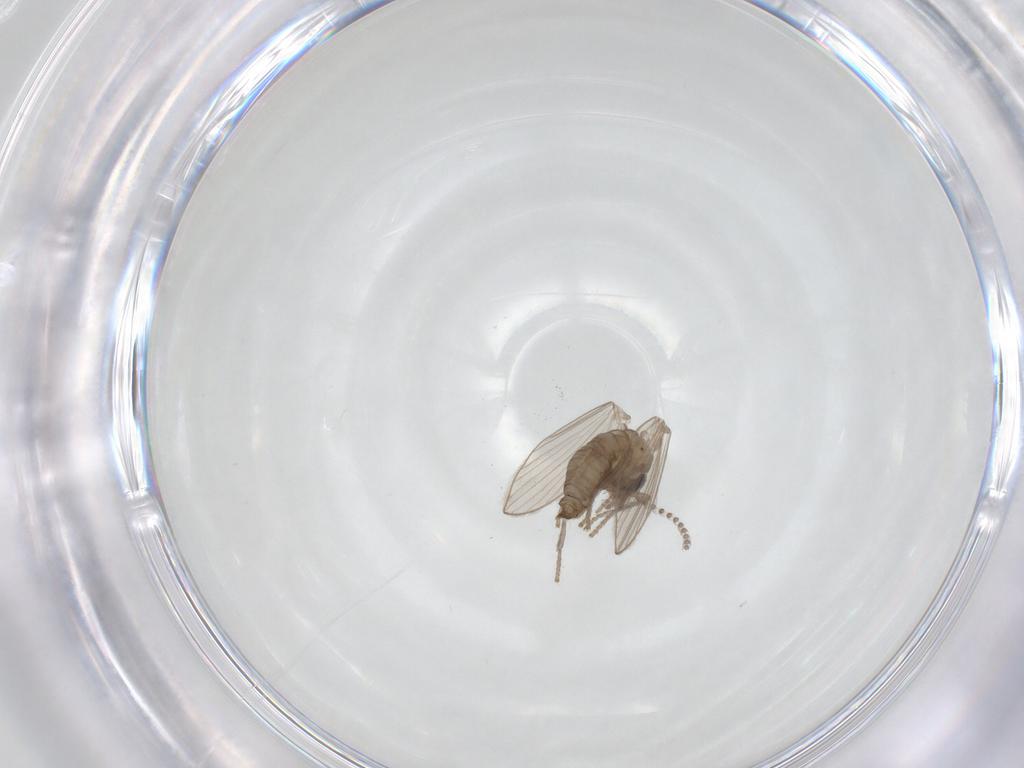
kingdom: Animalia
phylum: Arthropoda
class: Insecta
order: Diptera
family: Psychodidae
